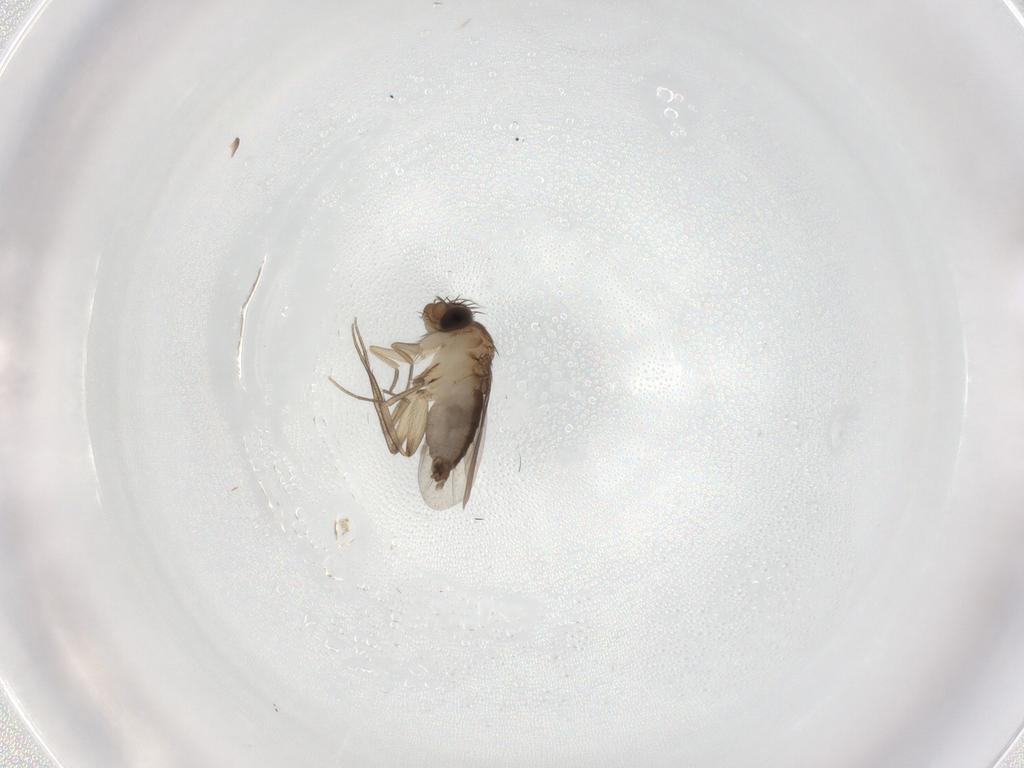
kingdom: Animalia
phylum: Arthropoda
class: Insecta
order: Diptera
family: Phoridae
